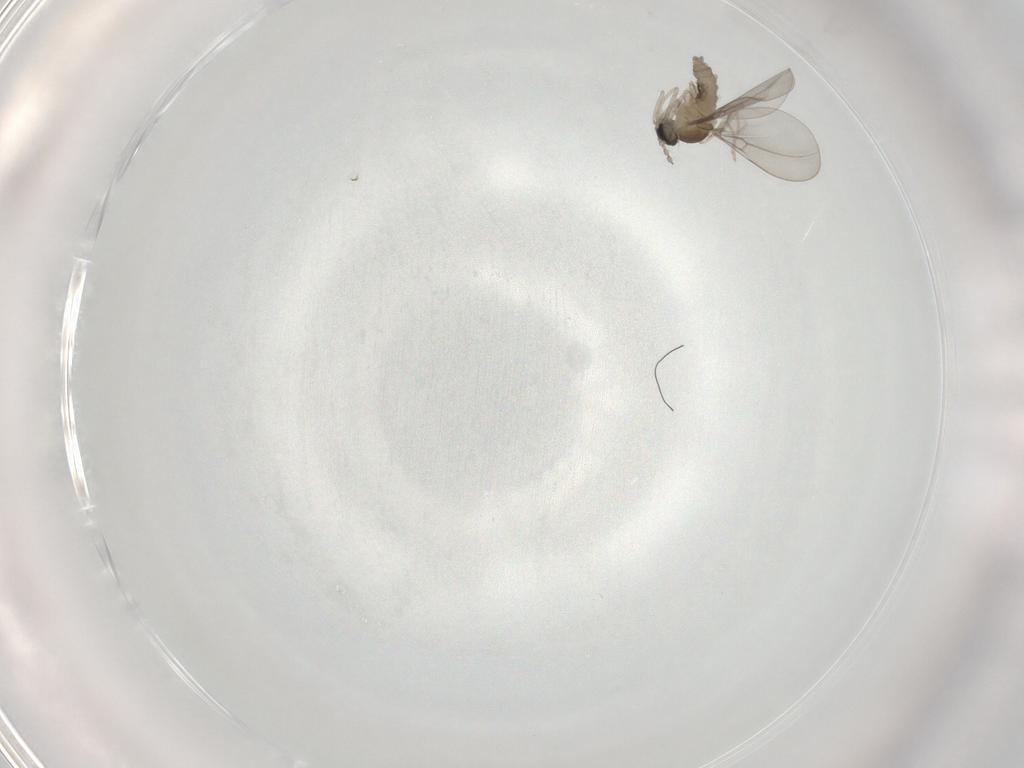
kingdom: Animalia
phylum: Arthropoda
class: Insecta
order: Diptera
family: Cecidomyiidae
